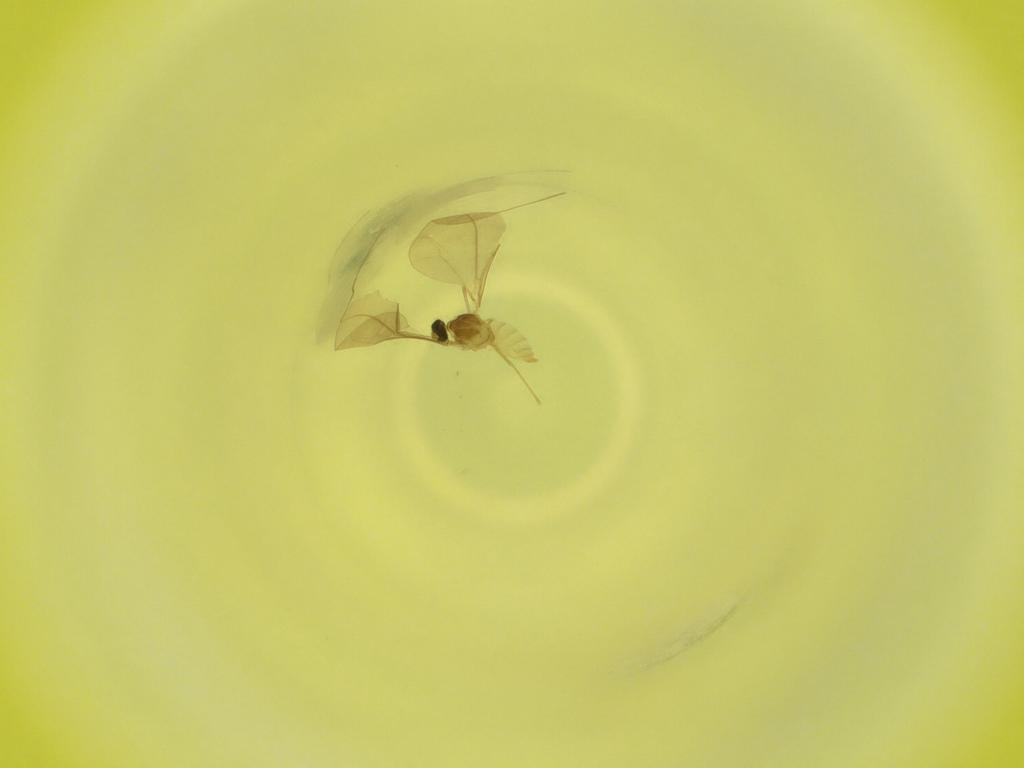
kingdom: Animalia
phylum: Arthropoda
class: Insecta
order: Diptera
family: Cecidomyiidae
